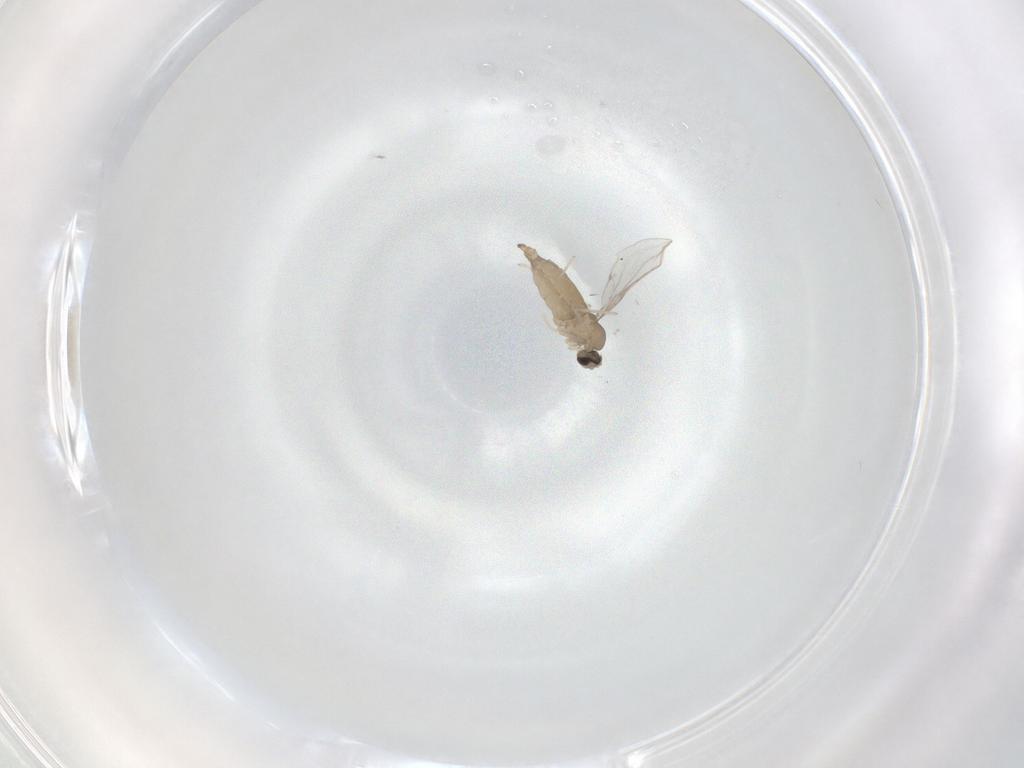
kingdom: Animalia
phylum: Arthropoda
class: Insecta
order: Diptera
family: Cecidomyiidae
